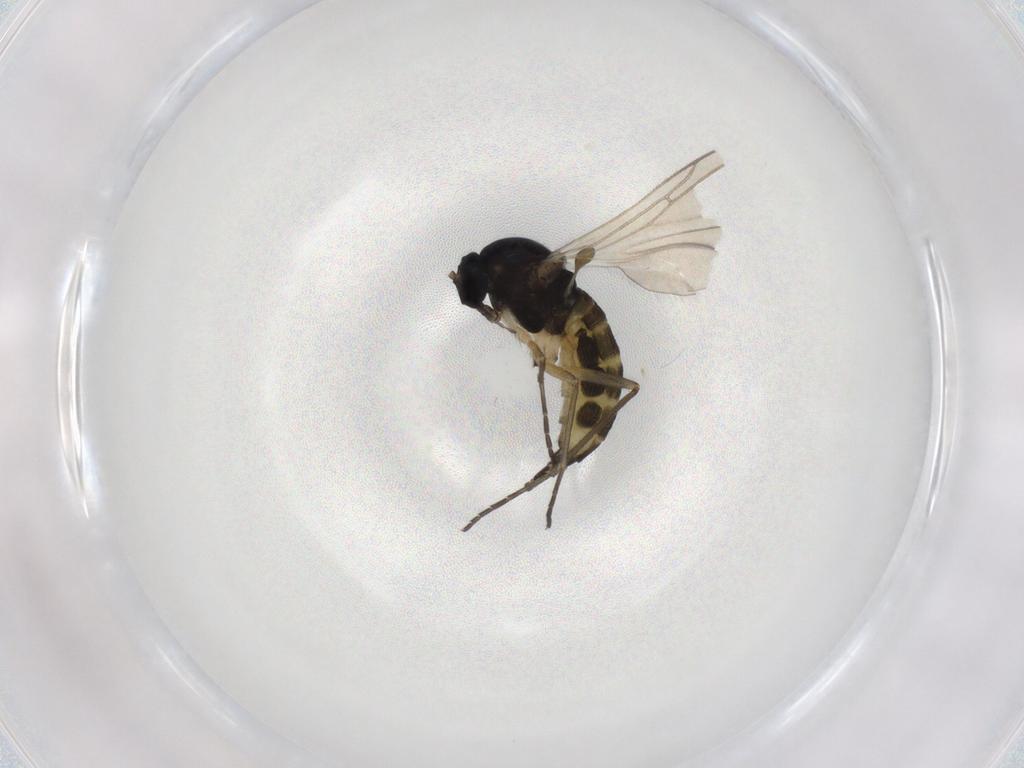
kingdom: Animalia
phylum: Arthropoda
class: Insecta
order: Diptera
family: Sciaridae
